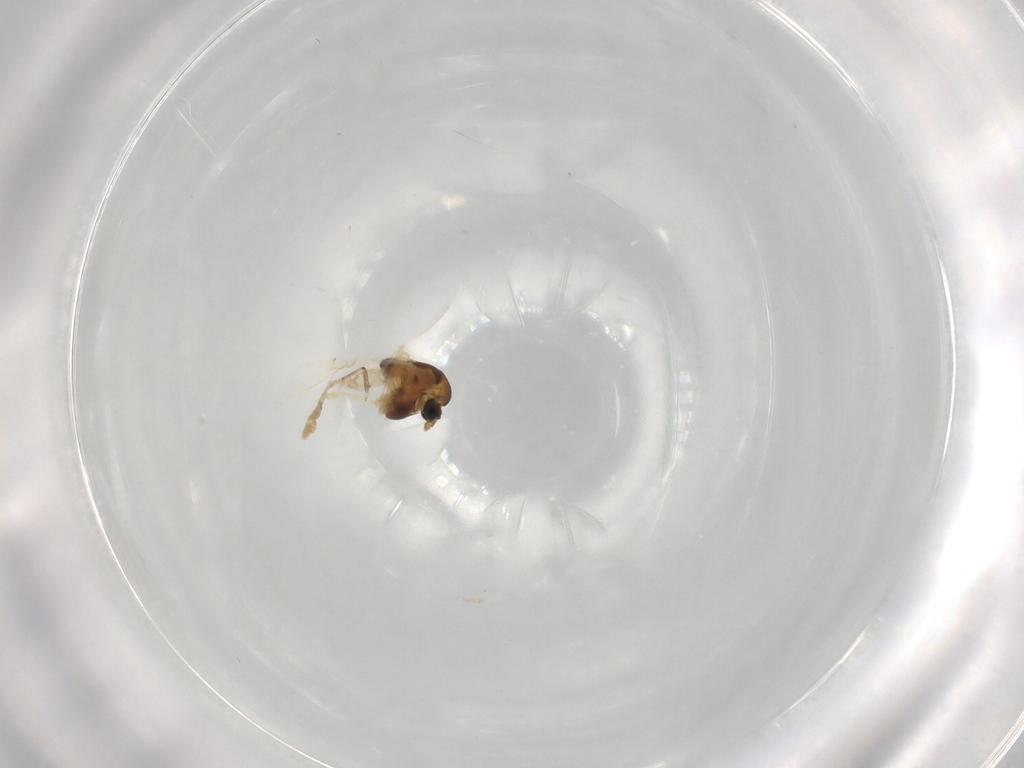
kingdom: Animalia
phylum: Arthropoda
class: Insecta
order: Diptera
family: Chironomidae
